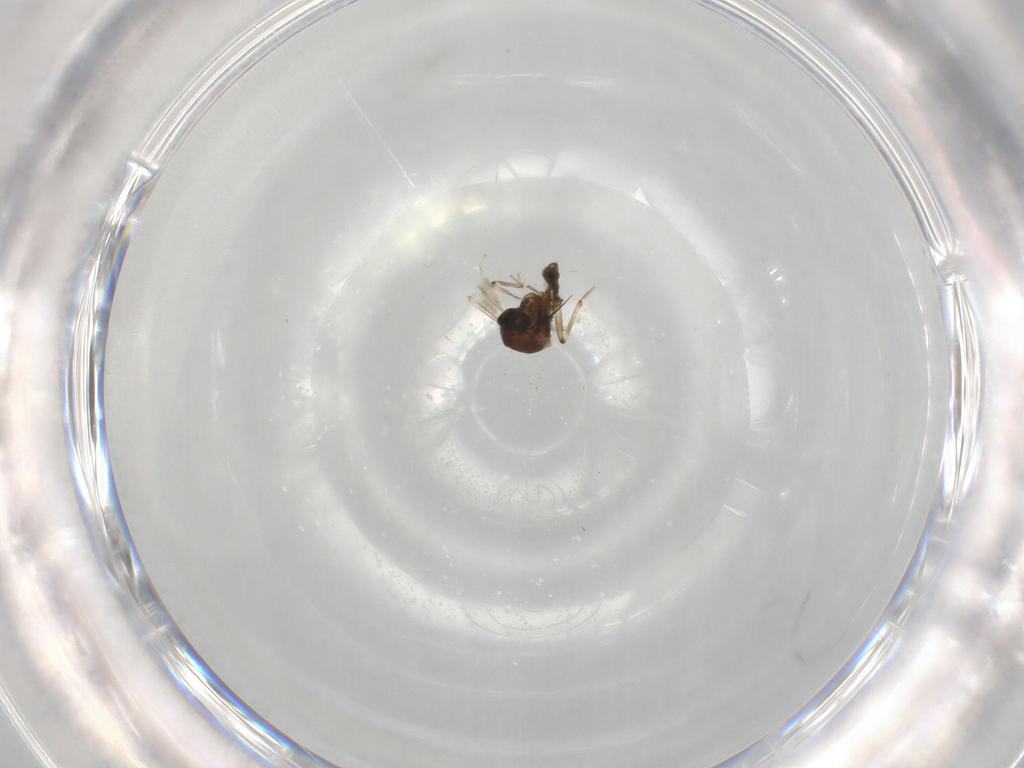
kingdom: Animalia
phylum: Arthropoda
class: Insecta
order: Diptera
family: Ceratopogonidae
